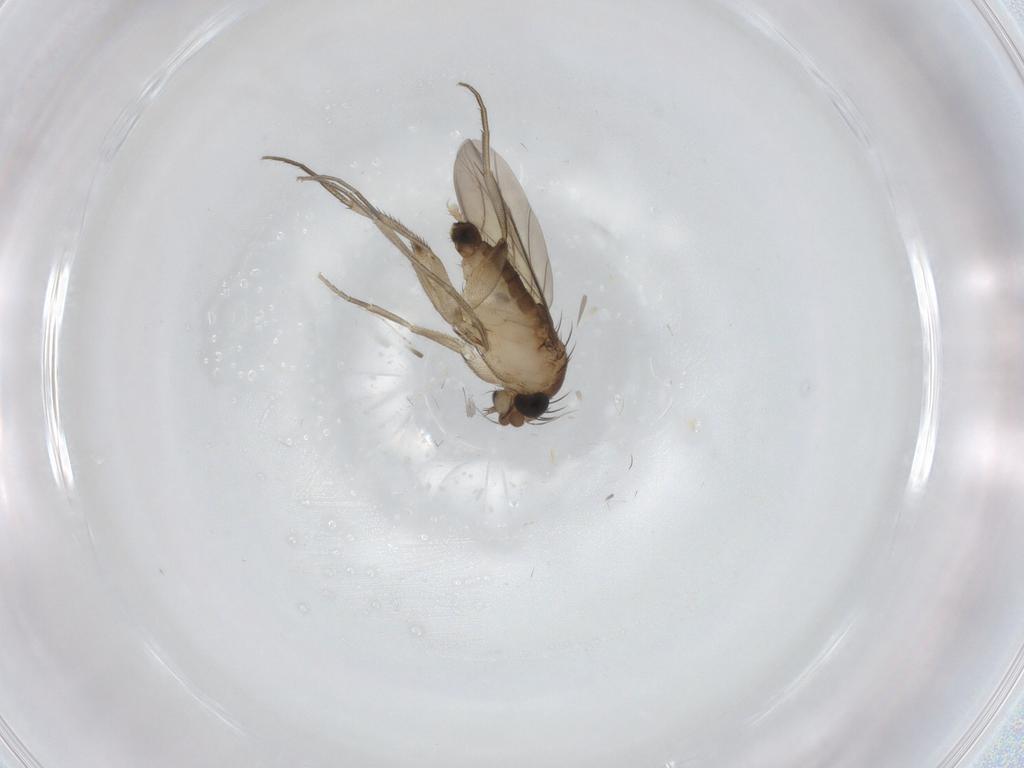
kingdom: Animalia
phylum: Arthropoda
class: Insecta
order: Diptera
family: Phoridae
